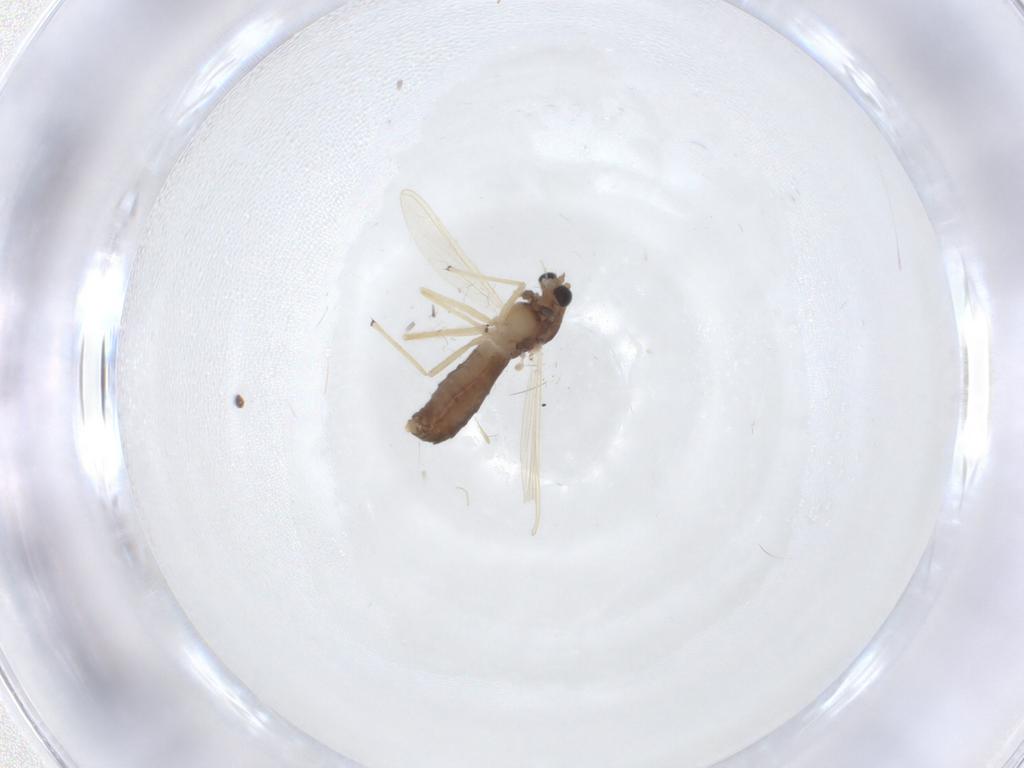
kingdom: Animalia
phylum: Arthropoda
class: Insecta
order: Diptera
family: Chironomidae
